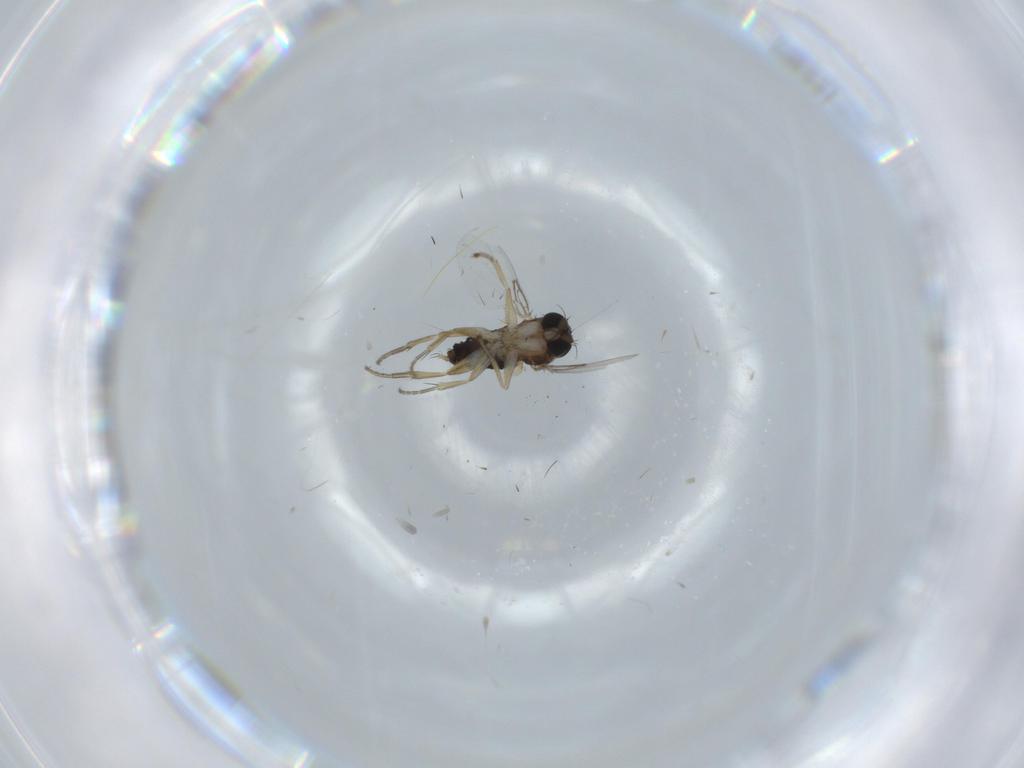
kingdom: Animalia
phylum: Arthropoda
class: Insecta
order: Diptera
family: Phoridae
